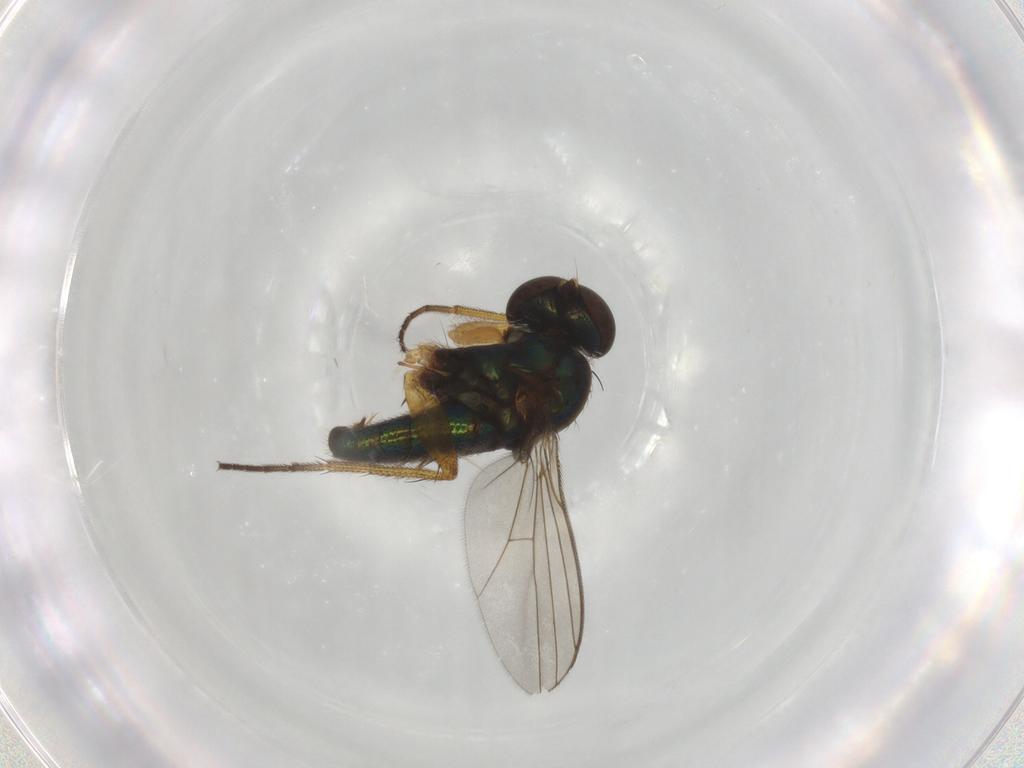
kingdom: Animalia
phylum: Arthropoda
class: Insecta
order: Diptera
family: Dolichopodidae
